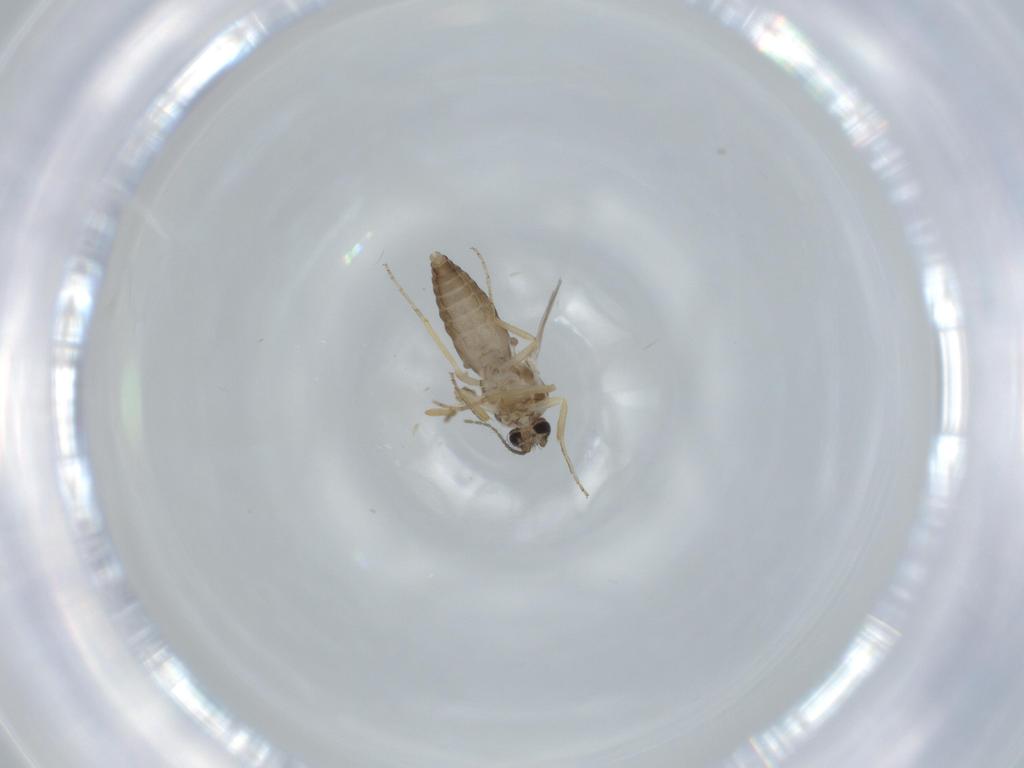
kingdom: Animalia
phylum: Arthropoda
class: Insecta
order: Diptera
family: Ceratopogonidae
